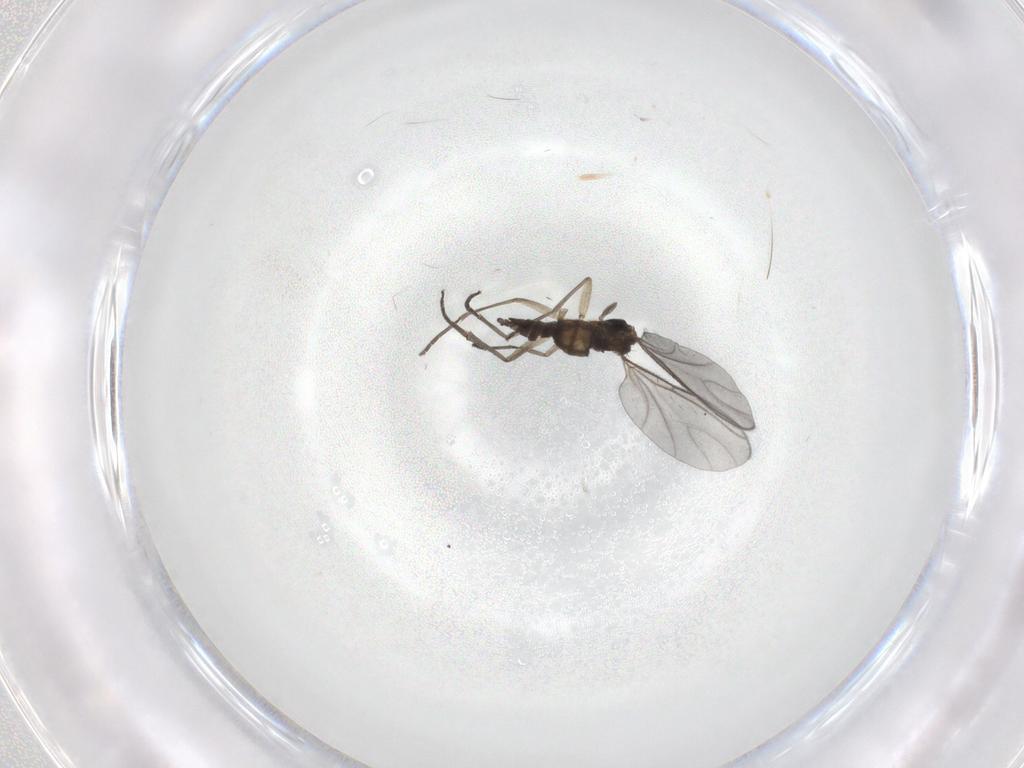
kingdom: Animalia
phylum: Arthropoda
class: Insecta
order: Diptera
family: Sciaridae
